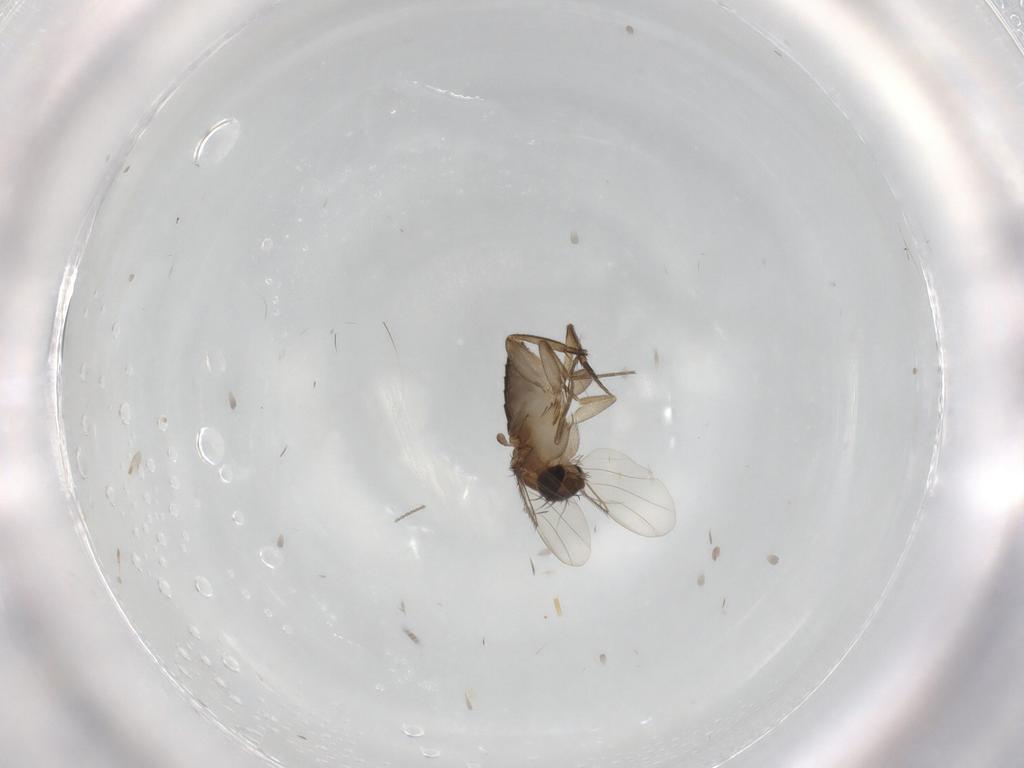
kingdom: Animalia
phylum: Arthropoda
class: Insecta
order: Diptera
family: Phoridae
